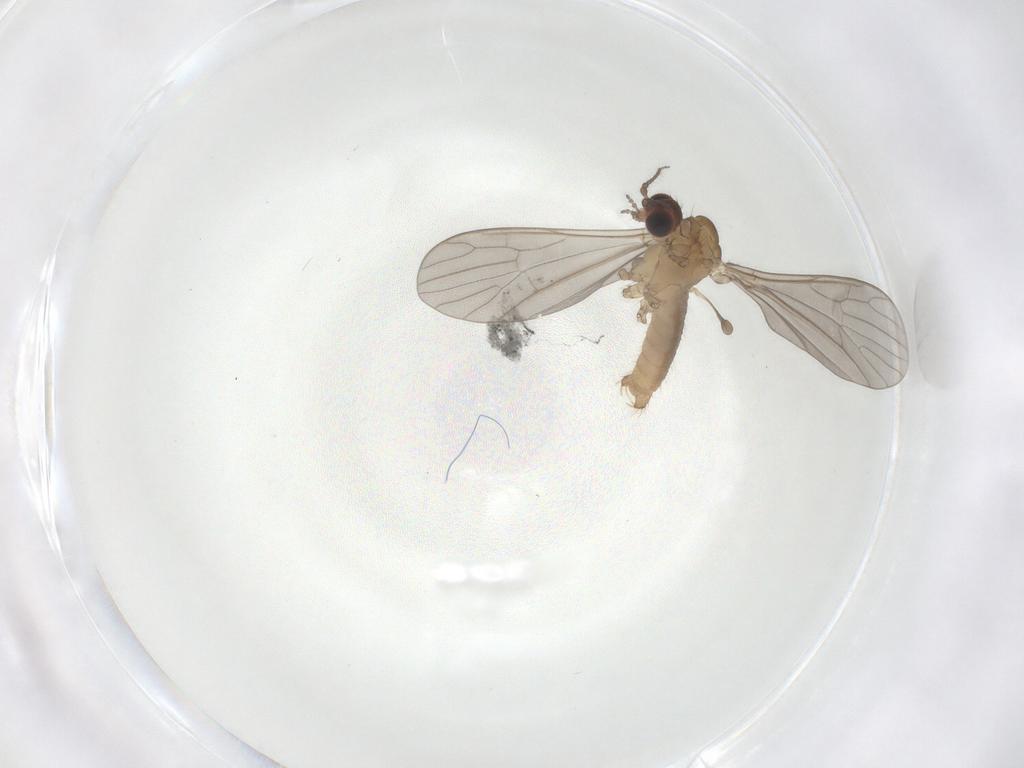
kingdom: Animalia
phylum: Arthropoda
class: Insecta
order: Diptera
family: Limoniidae
